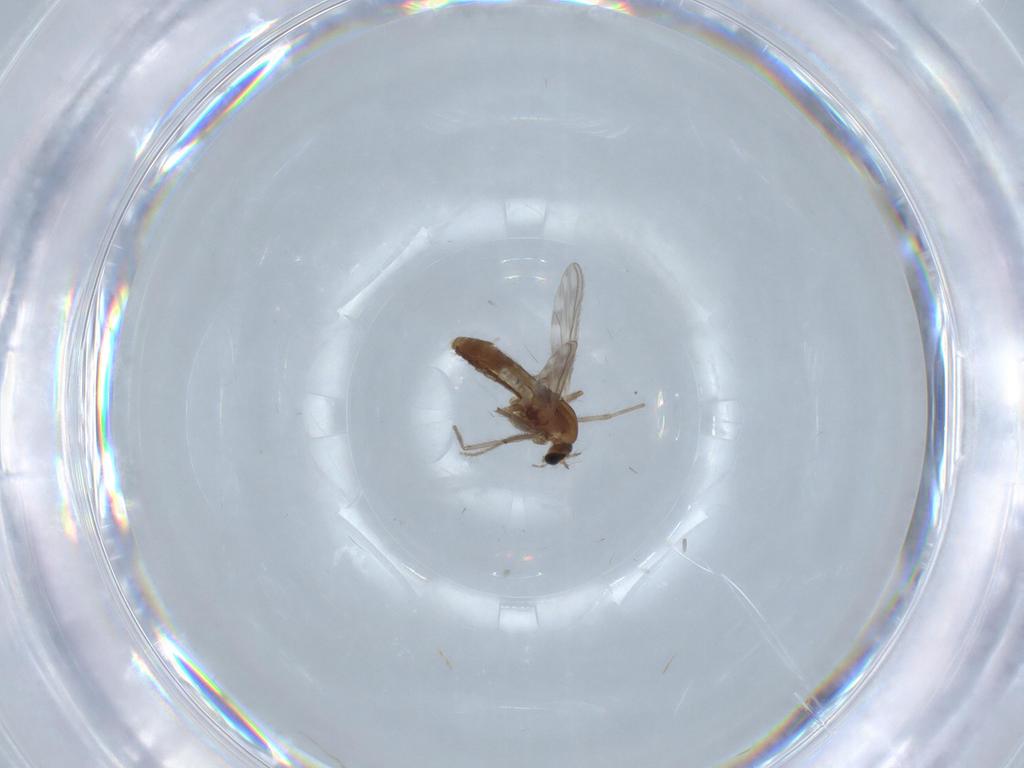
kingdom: Animalia
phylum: Arthropoda
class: Insecta
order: Diptera
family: Chironomidae
